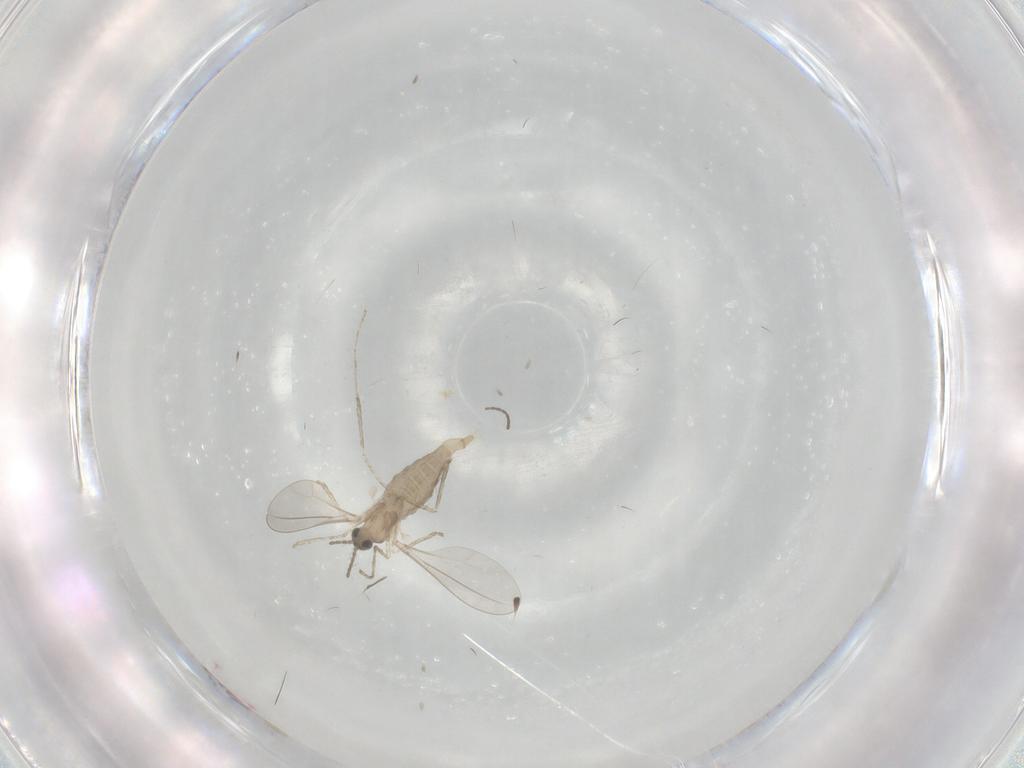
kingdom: Animalia
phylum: Arthropoda
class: Insecta
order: Diptera
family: Cecidomyiidae
